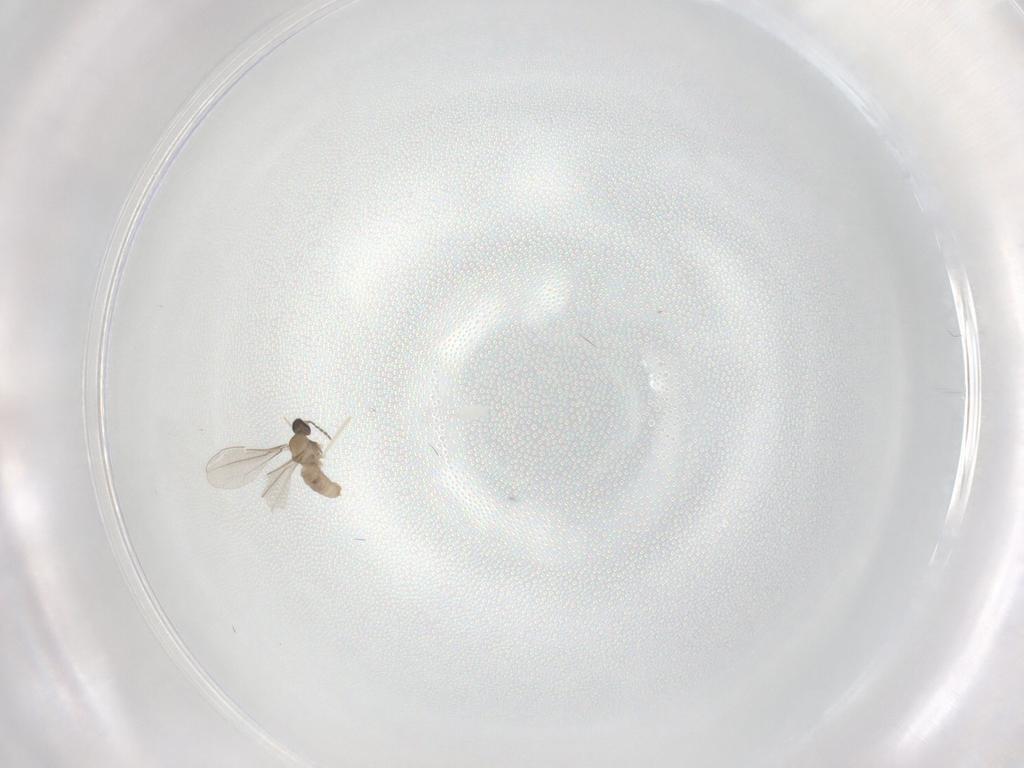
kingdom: Animalia
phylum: Arthropoda
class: Insecta
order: Diptera
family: Cecidomyiidae
